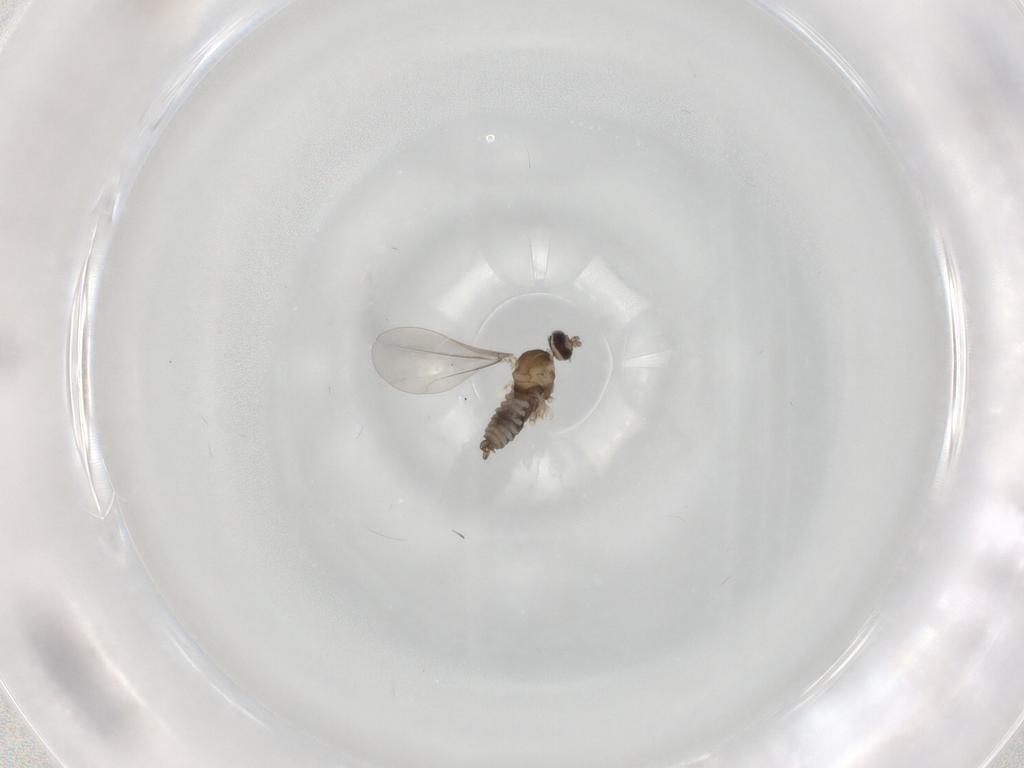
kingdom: Animalia
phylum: Arthropoda
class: Insecta
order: Diptera
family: Cecidomyiidae
